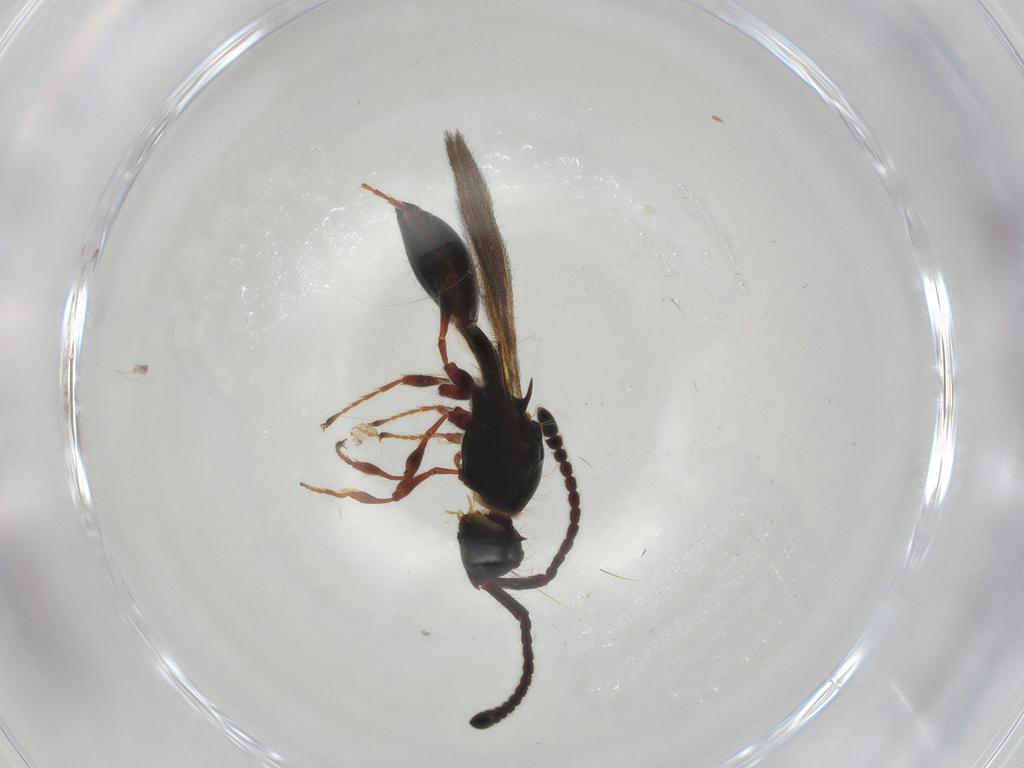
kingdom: Animalia
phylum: Arthropoda
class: Insecta
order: Hymenoptera
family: Diapriidae
